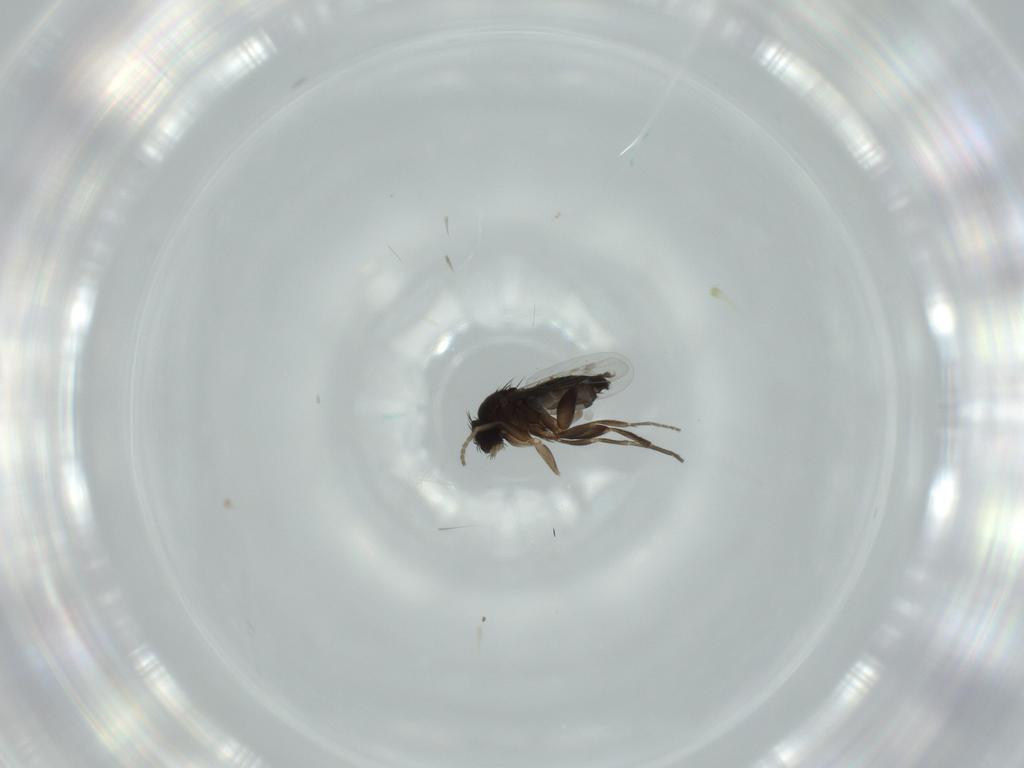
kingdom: Animalia
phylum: Arthropoda
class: Insecta
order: Diptera
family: Phoridae
